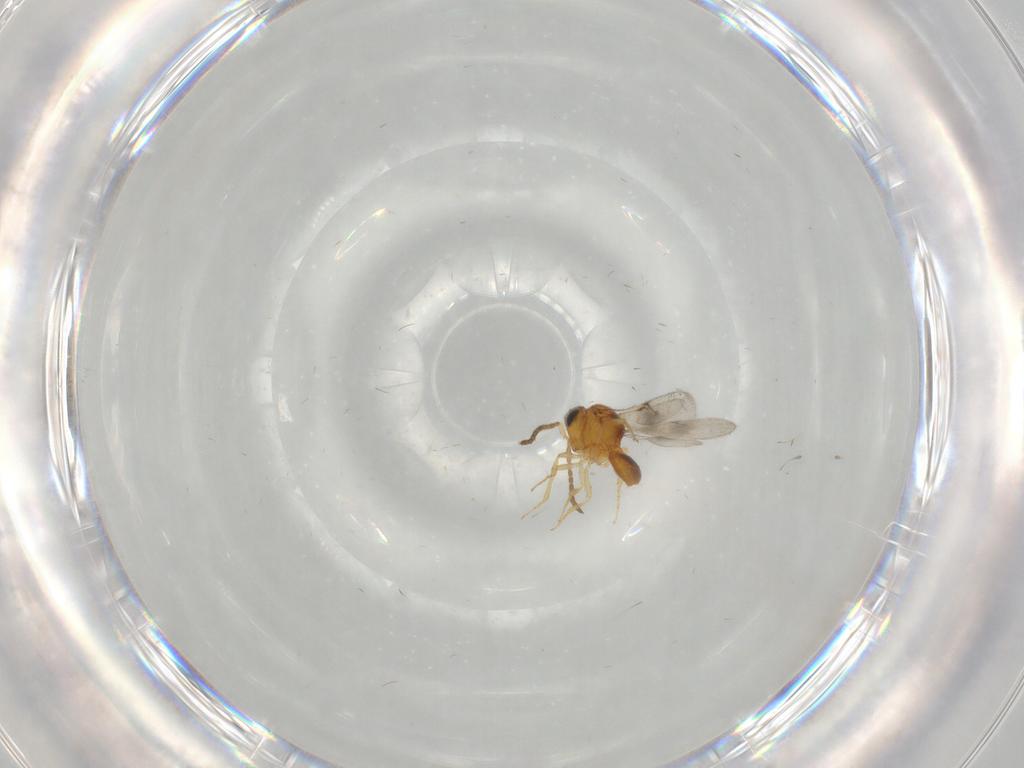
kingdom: Animalia
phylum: Arthropoda
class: Insecta
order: Hymenoptera
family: Scelionidae
